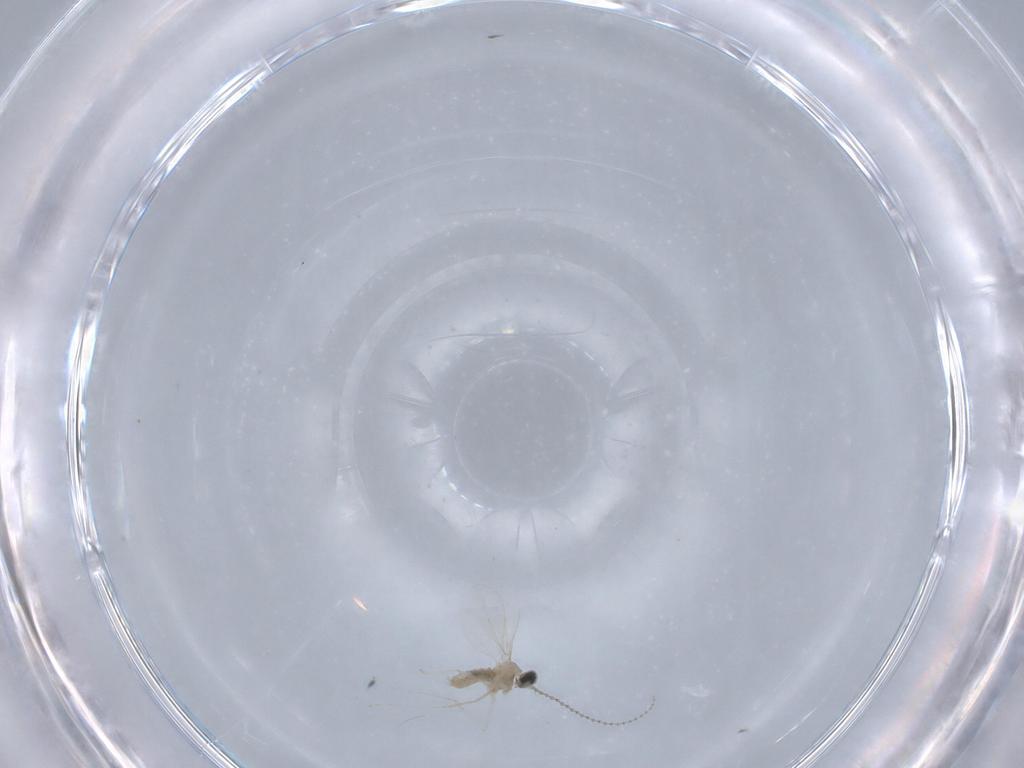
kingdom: Animalia
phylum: Arthropoda
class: Insecta
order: Diptera
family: Cecidomyiidae
